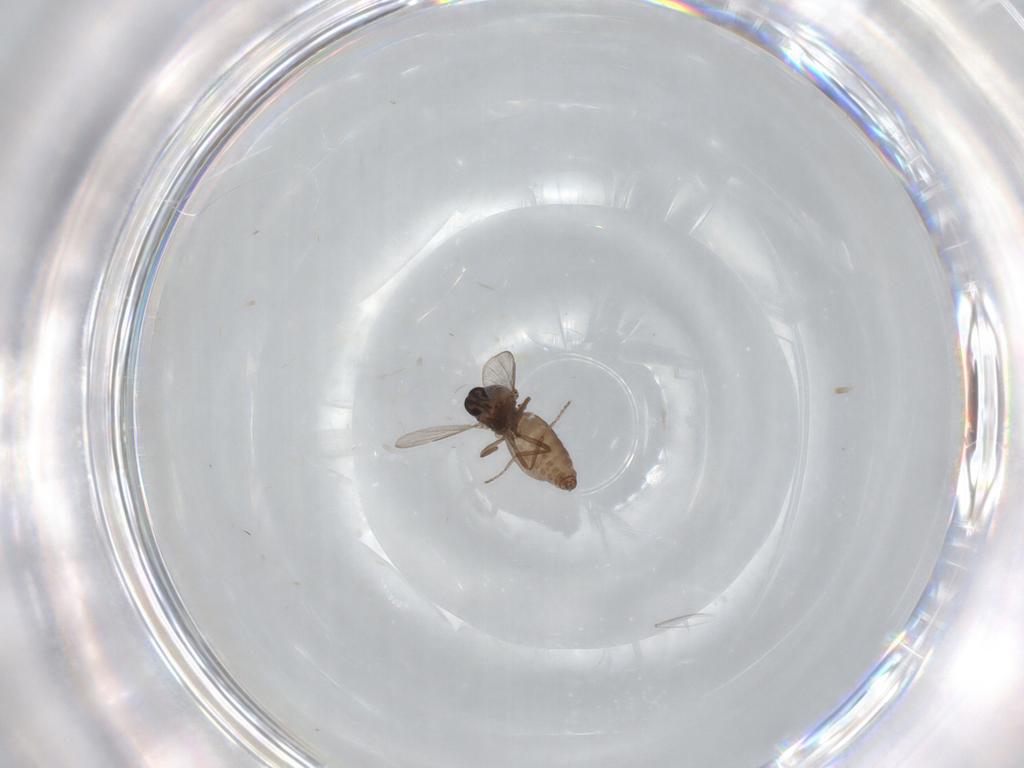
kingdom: Animalia
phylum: Arthropoda
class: Insecta
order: Diptera
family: Ceratopogonidae
